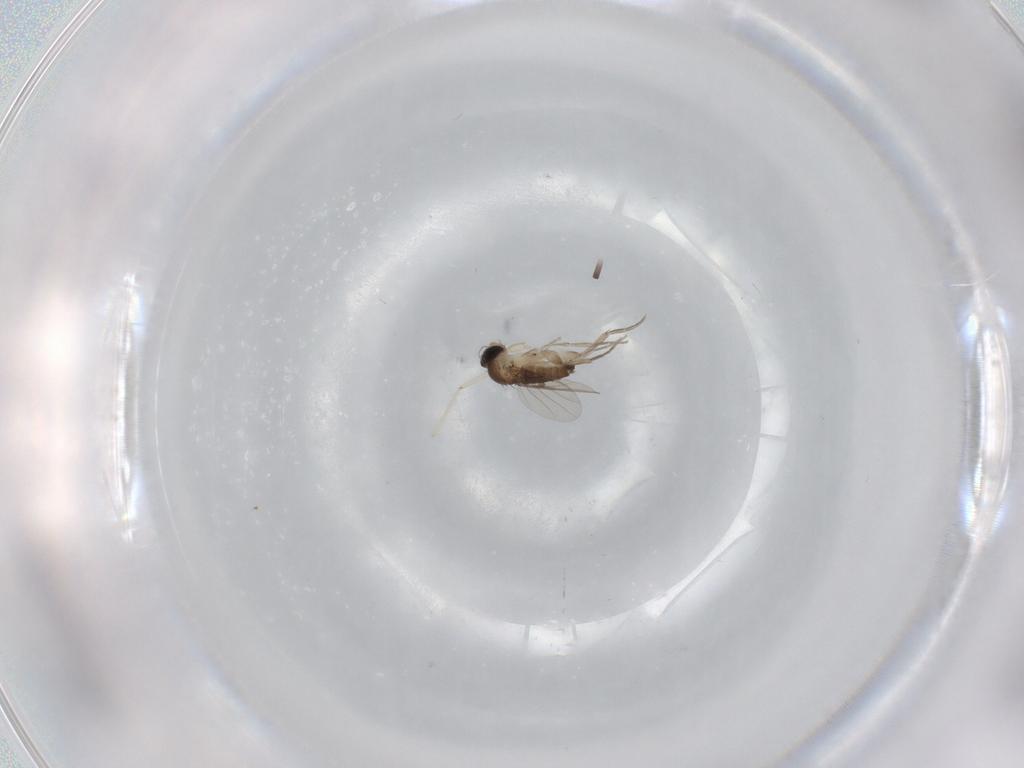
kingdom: Animalia
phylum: Arthropoda
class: Insecta
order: Diptera
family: Phoridae
